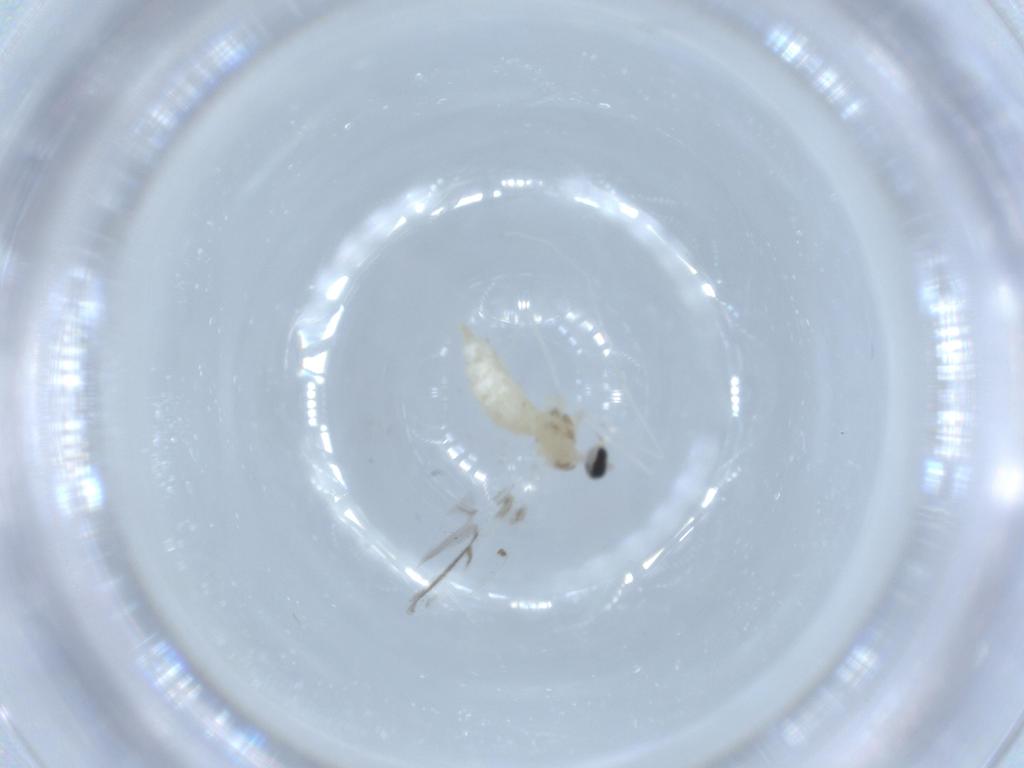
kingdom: Animalia
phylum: Arthropoda
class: Insecta
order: Diptera
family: Cecidomyiidae
